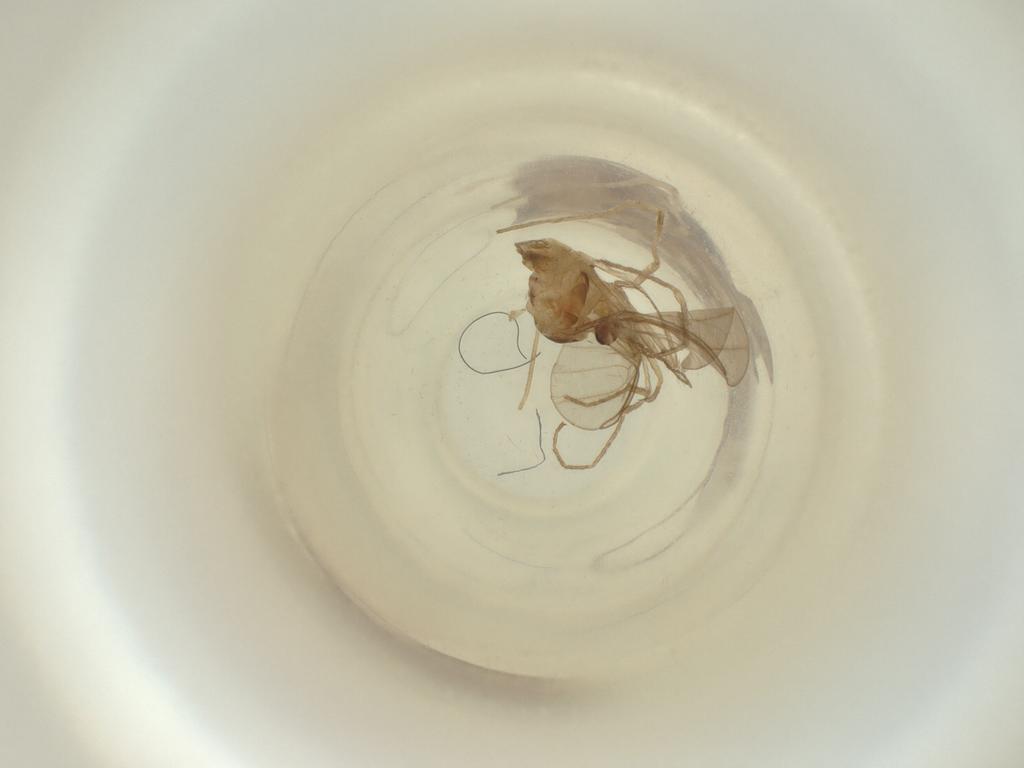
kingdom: Animalia
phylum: Arthropoda
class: Insecta
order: Diptera
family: Cecidomyiidae
